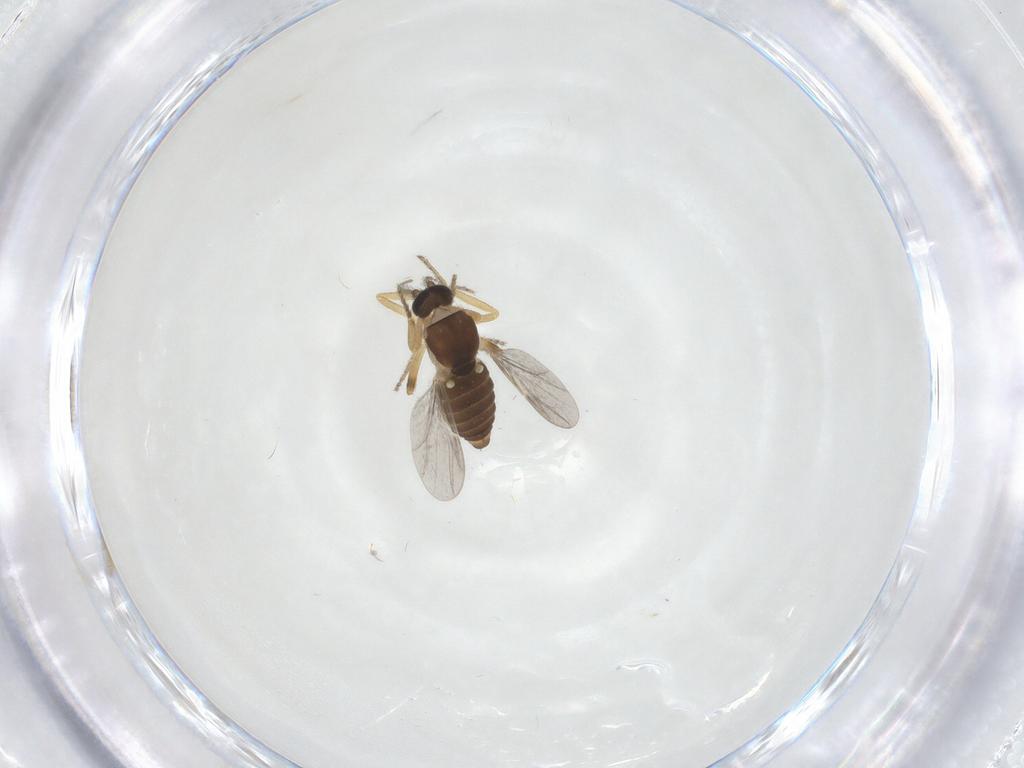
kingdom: Animalia
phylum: Arthropoda
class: Insecta
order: Diptera
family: Ceratopogonidae
